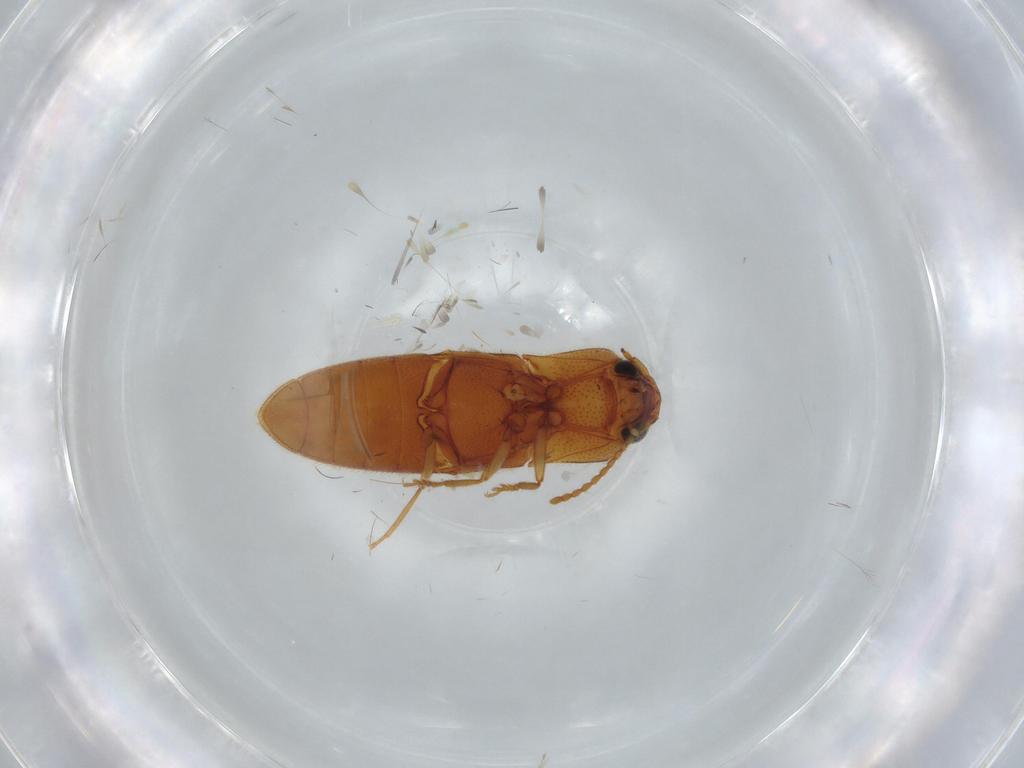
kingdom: Animalia
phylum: Arthropoda
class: Insecta
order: Coleoptera
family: Elateridae
